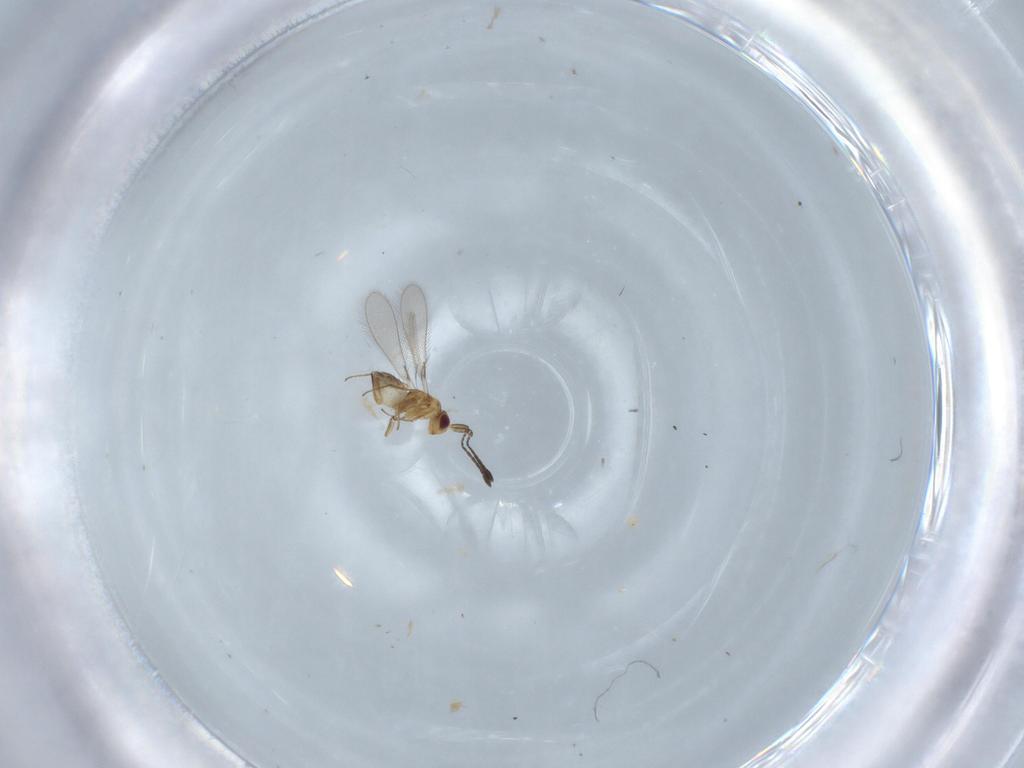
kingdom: Animalia
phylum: Arthropoda
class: Insecta
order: Hymenoptera
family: Mymaridae
